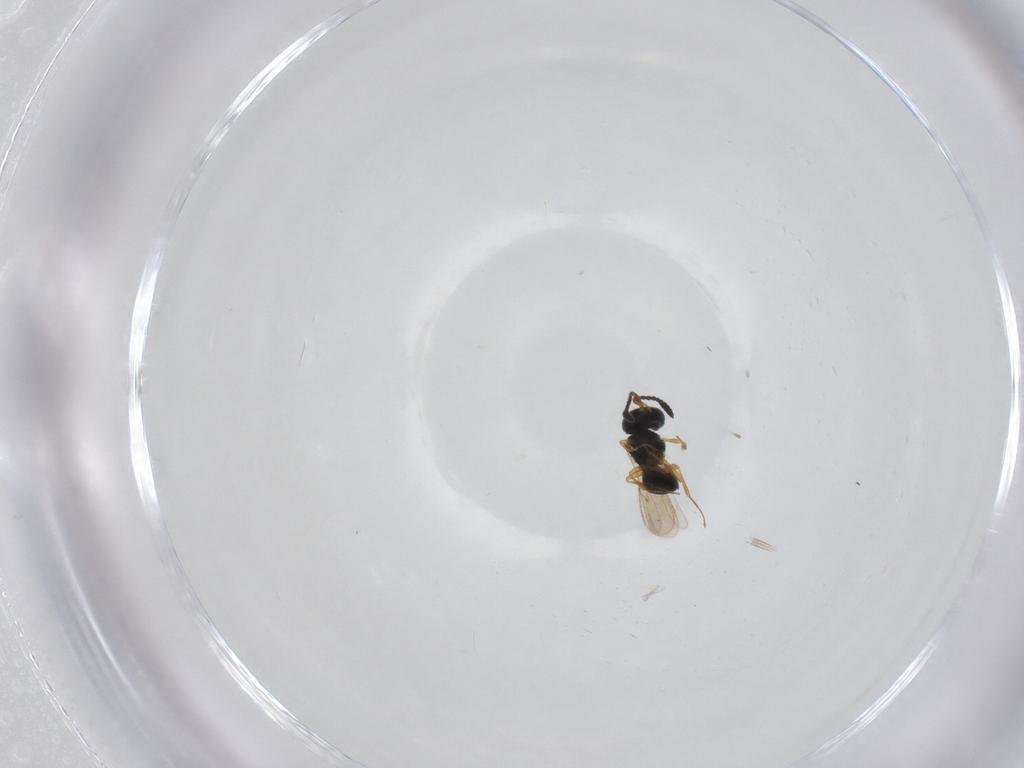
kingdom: Animalia
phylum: Arthropoda
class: Insecta
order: Hymenoptera
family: Scelionidae
